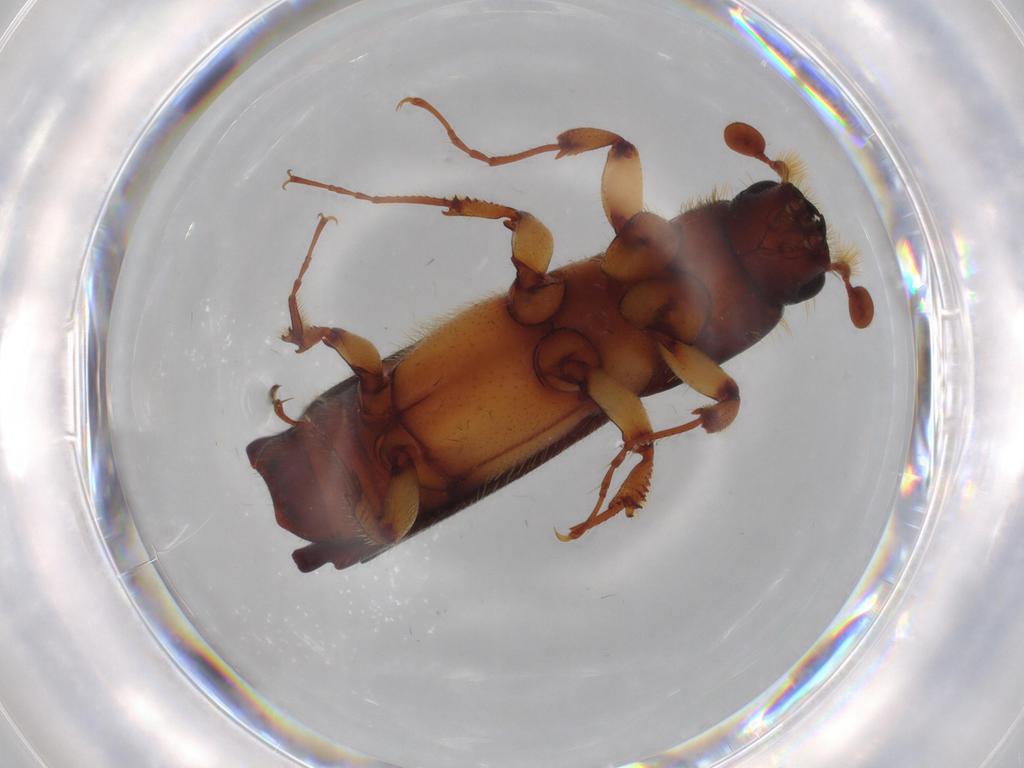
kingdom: Animalia
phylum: Arthropoda
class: Insecta
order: Coleoptera
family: Curculionidae
